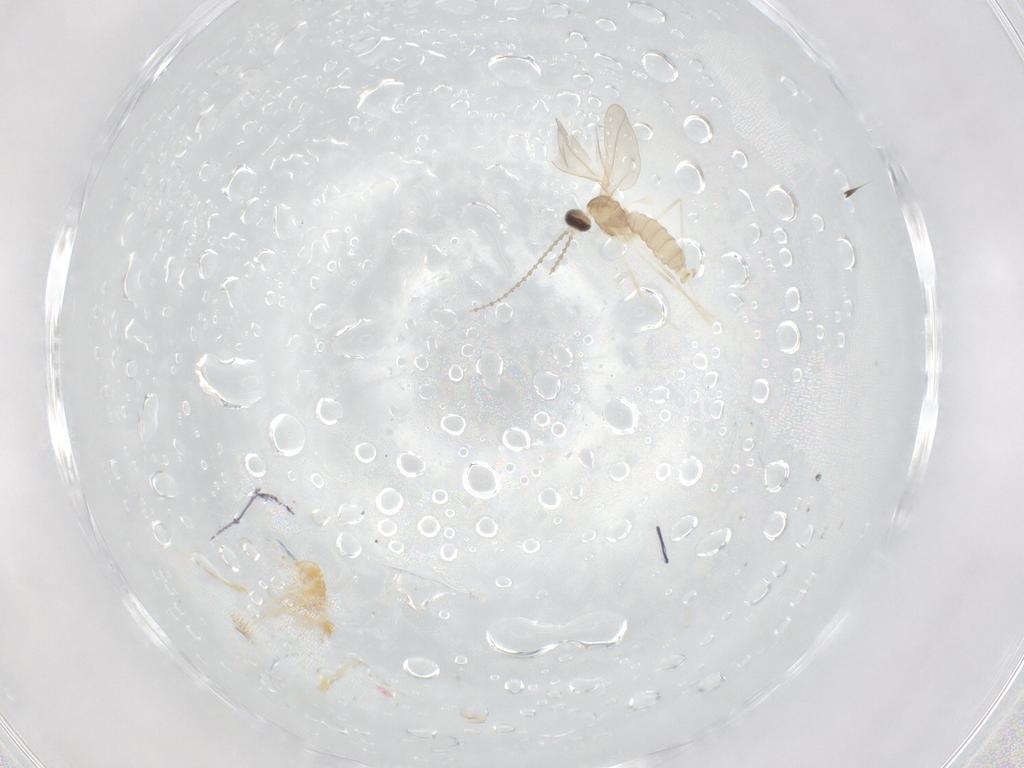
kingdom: Animalia
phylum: Arthropoda
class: Insecta
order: Diptera
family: Cecidomyiidae
